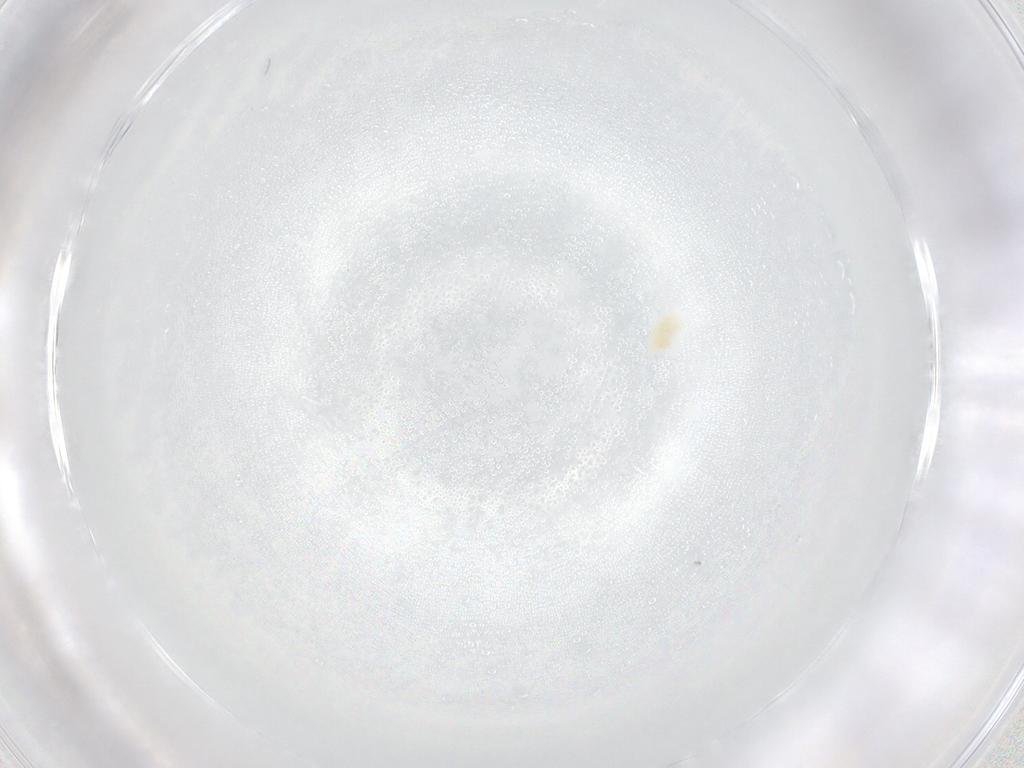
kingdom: Animalia
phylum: Arthropoda
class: Arachnida
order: Trombidiformes
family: Eupodidae
